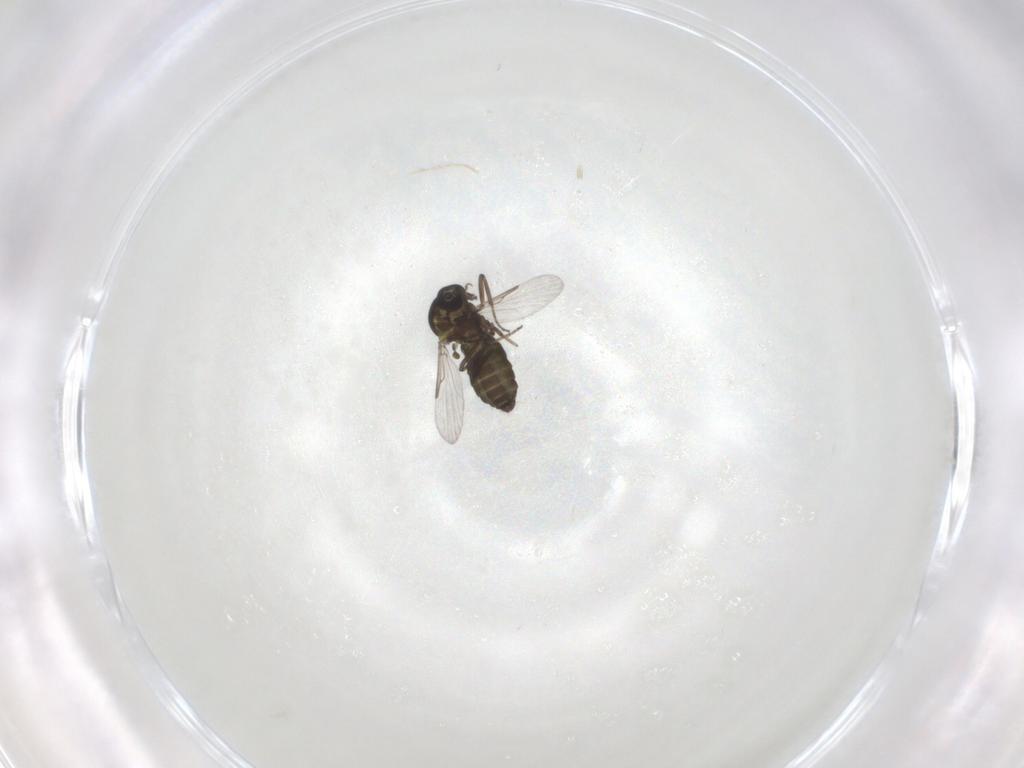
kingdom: Animalia
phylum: Arthropoda
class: Insecta
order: Diptera
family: Ceratopogonidae
